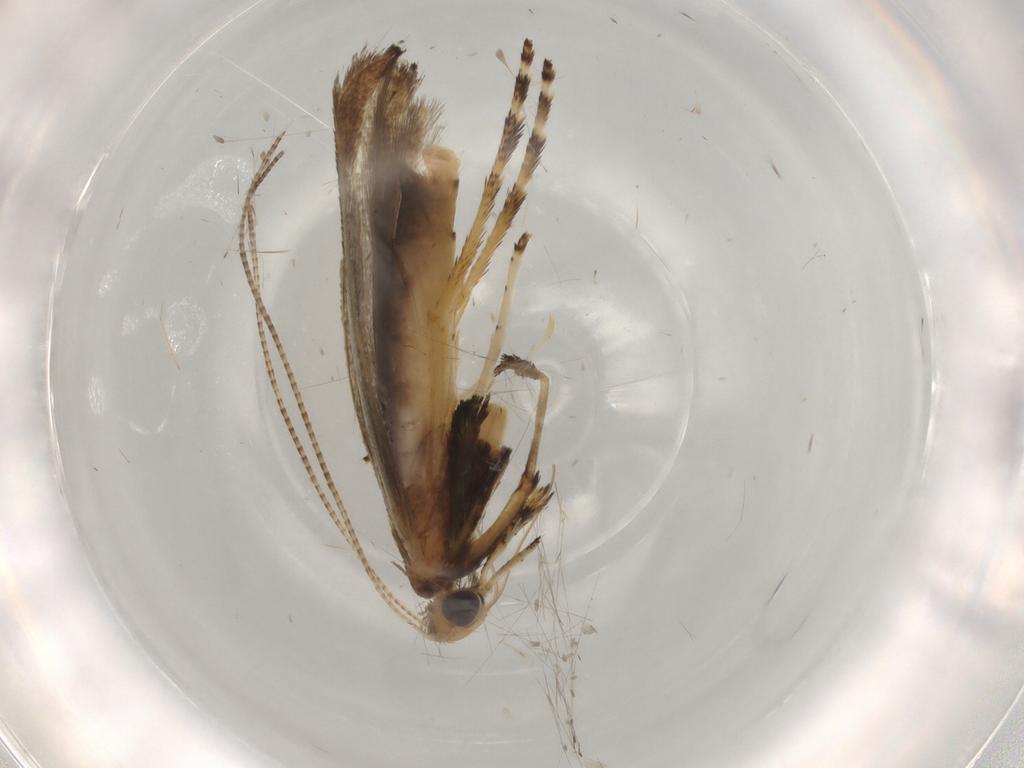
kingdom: Animalia
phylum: Arthropoda
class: Insecta
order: Lepidoptera
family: Gracillariidae
